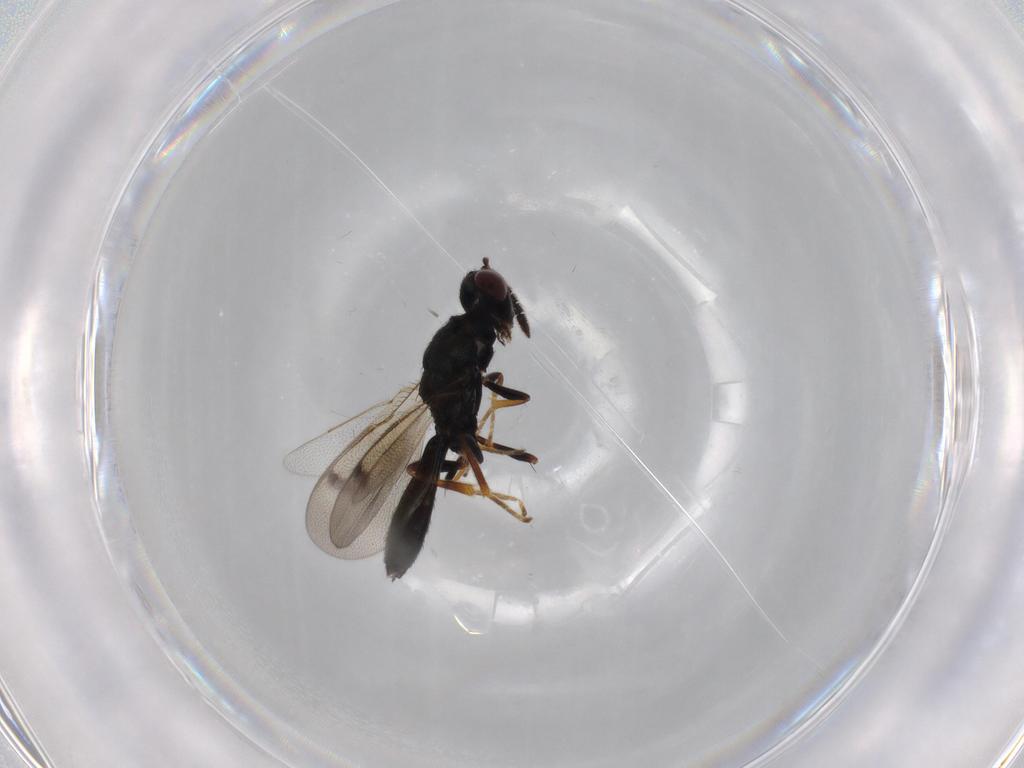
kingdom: Animalia
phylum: Arthropoda
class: Insecta
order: Hymenoptera
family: Pteromalidae
